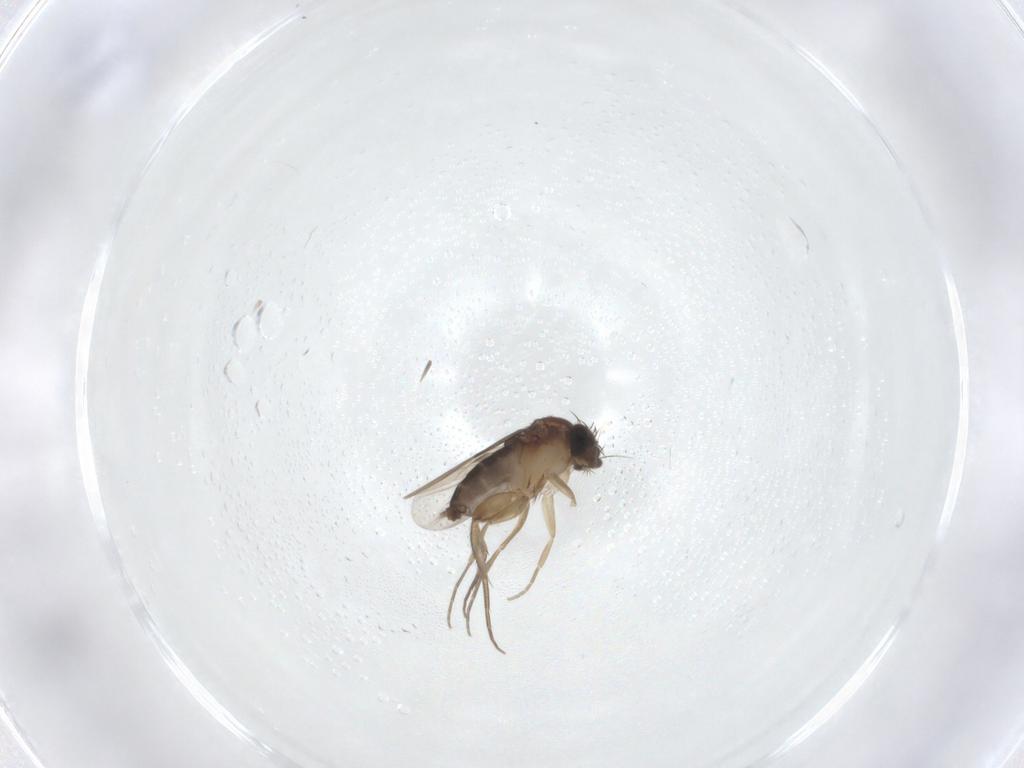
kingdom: Animalia
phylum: Arthropoda
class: Insecta
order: Diptera
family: Phoridae
